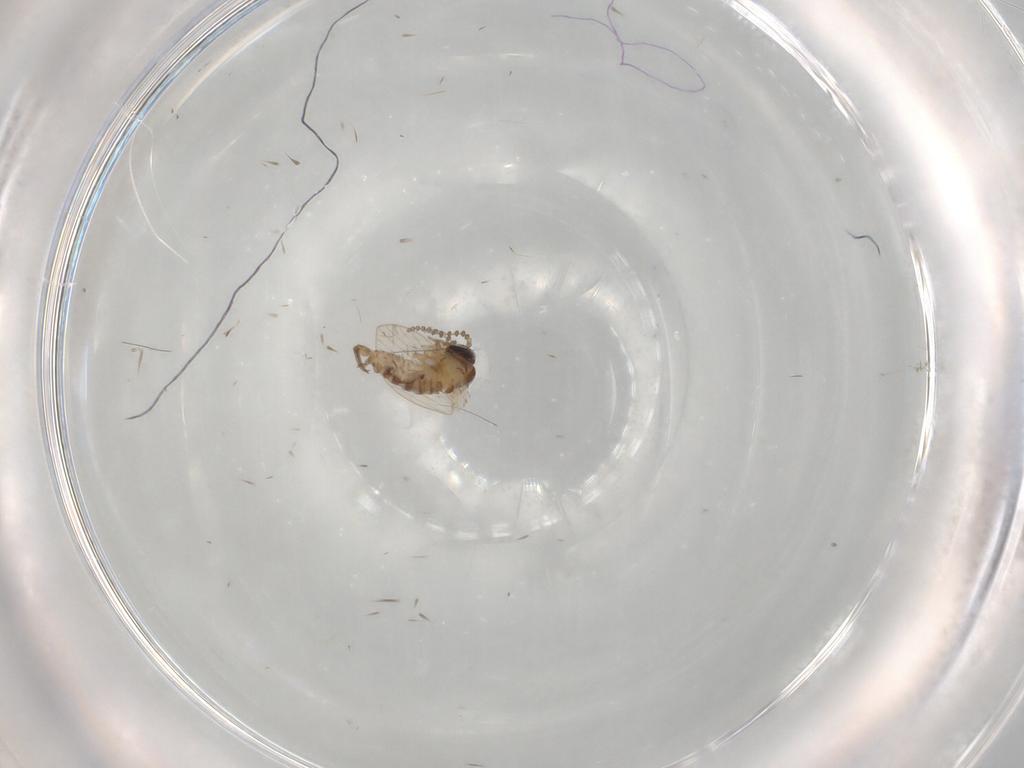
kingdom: Animalia
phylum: Arthropoda
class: Insecta
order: Diptera
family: Psychodidae
